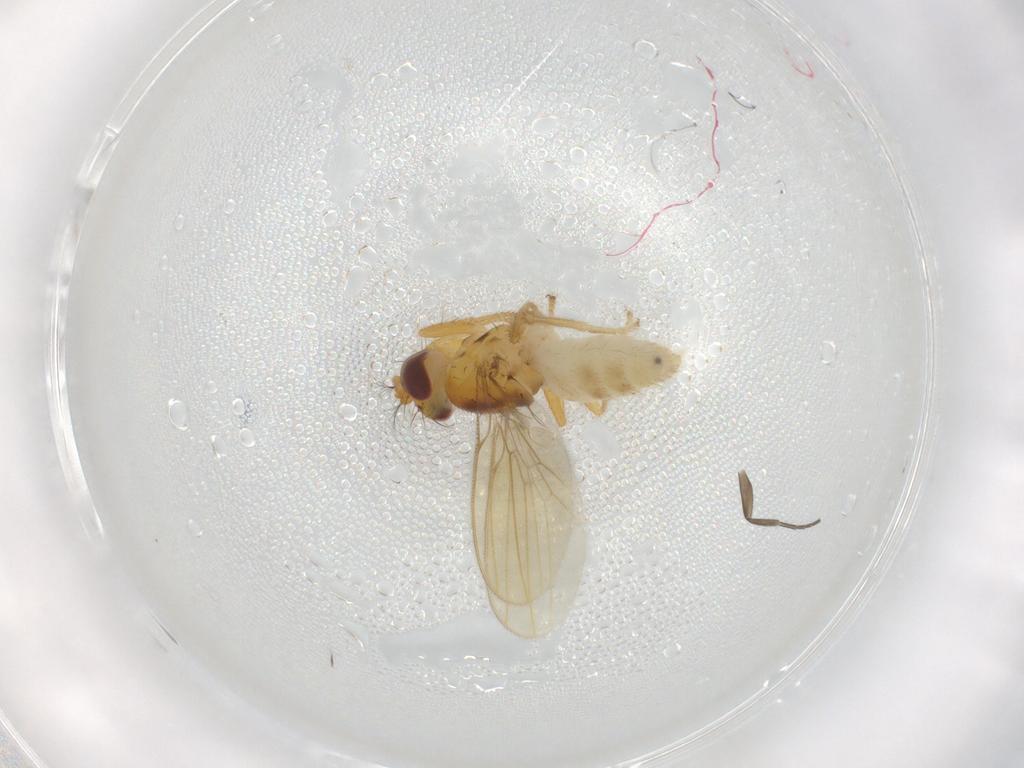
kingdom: Animalia
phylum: Arthropoda
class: Insecta
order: Diptera
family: Periscelididae
